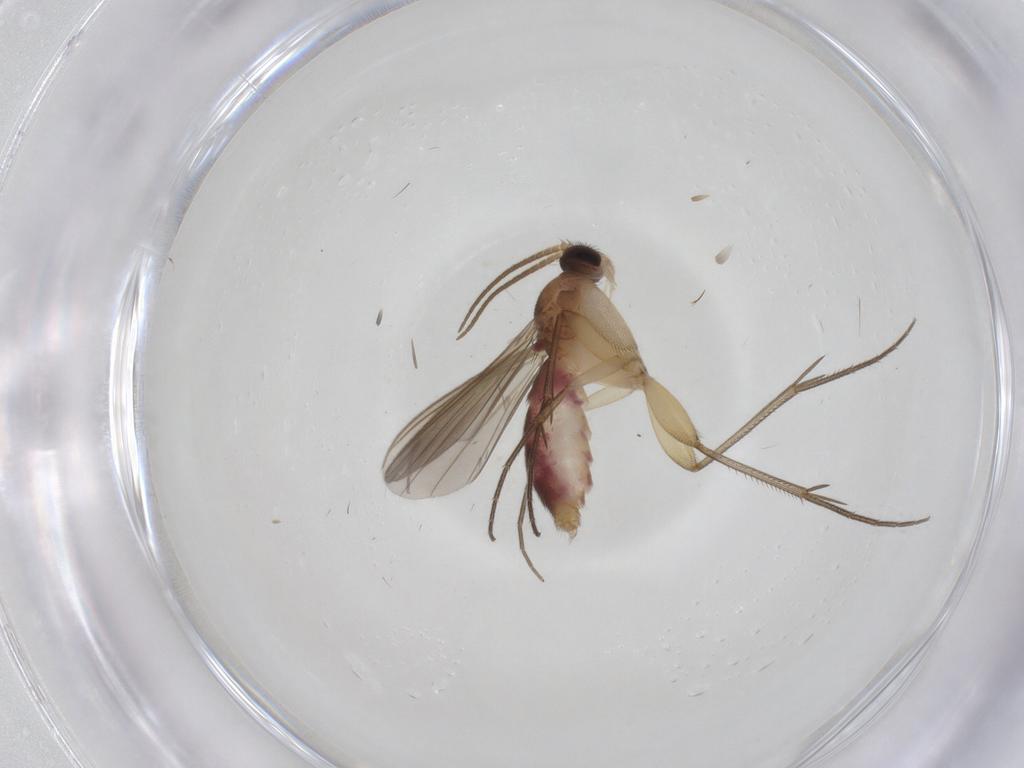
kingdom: Animalia
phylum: Arthropoda
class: Insecta
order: Diptera
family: Mycetophilidae
